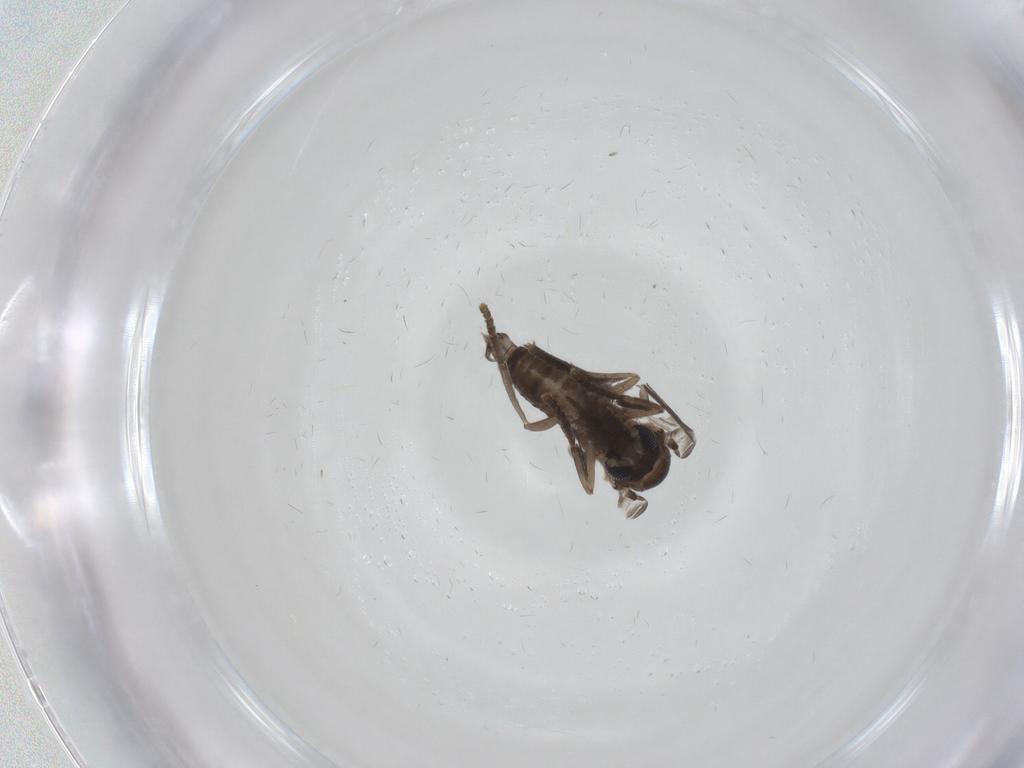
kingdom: Animalia
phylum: Arthropoda
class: Insecta
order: Diptera
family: Psychodidae
